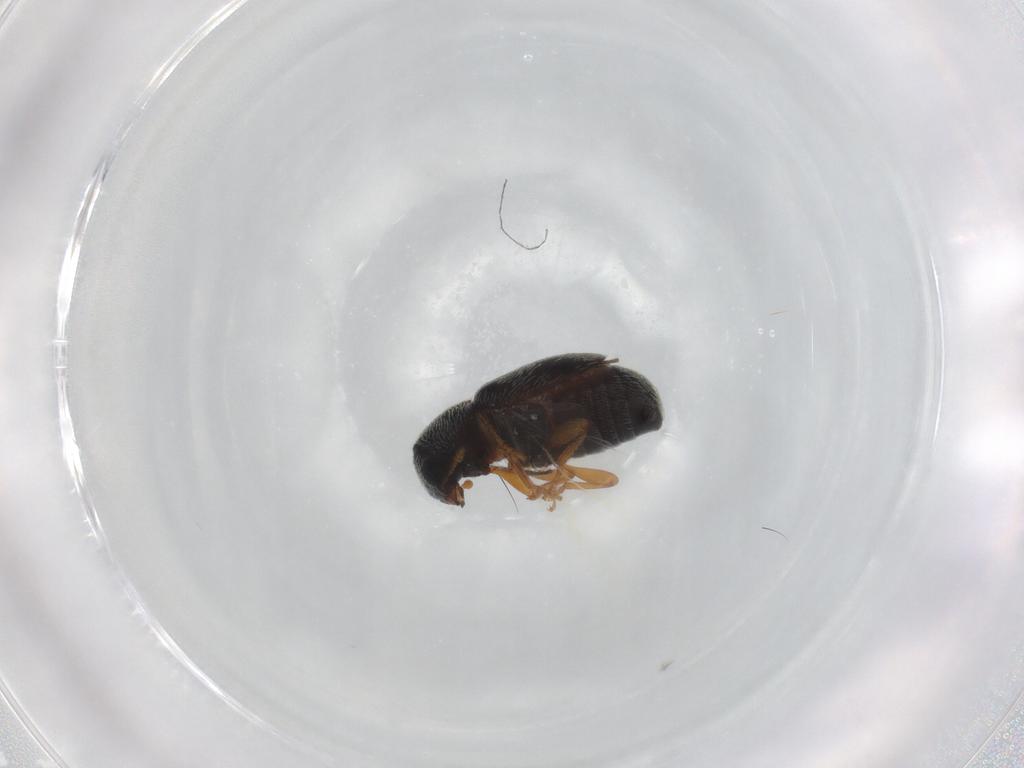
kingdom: Animalia
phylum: Arthropoda
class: Insecta
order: Coleoptera
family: Anthribidae
